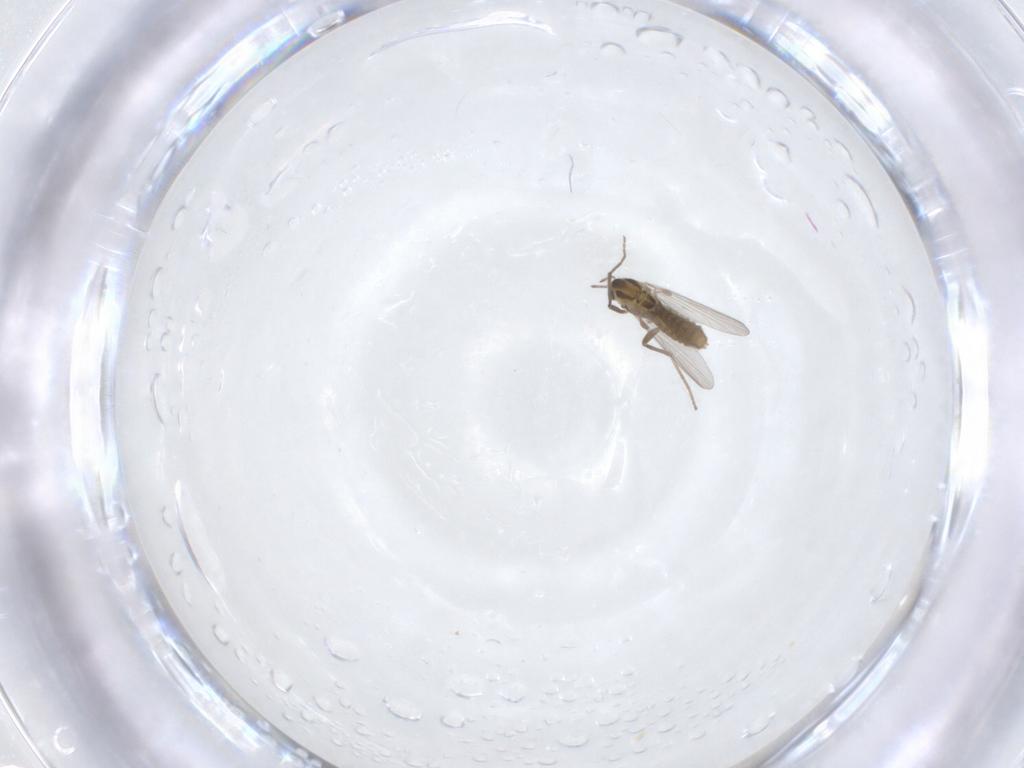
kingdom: Animalia
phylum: Arthropoda
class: Insecta
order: Diptera
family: Chironomidae
